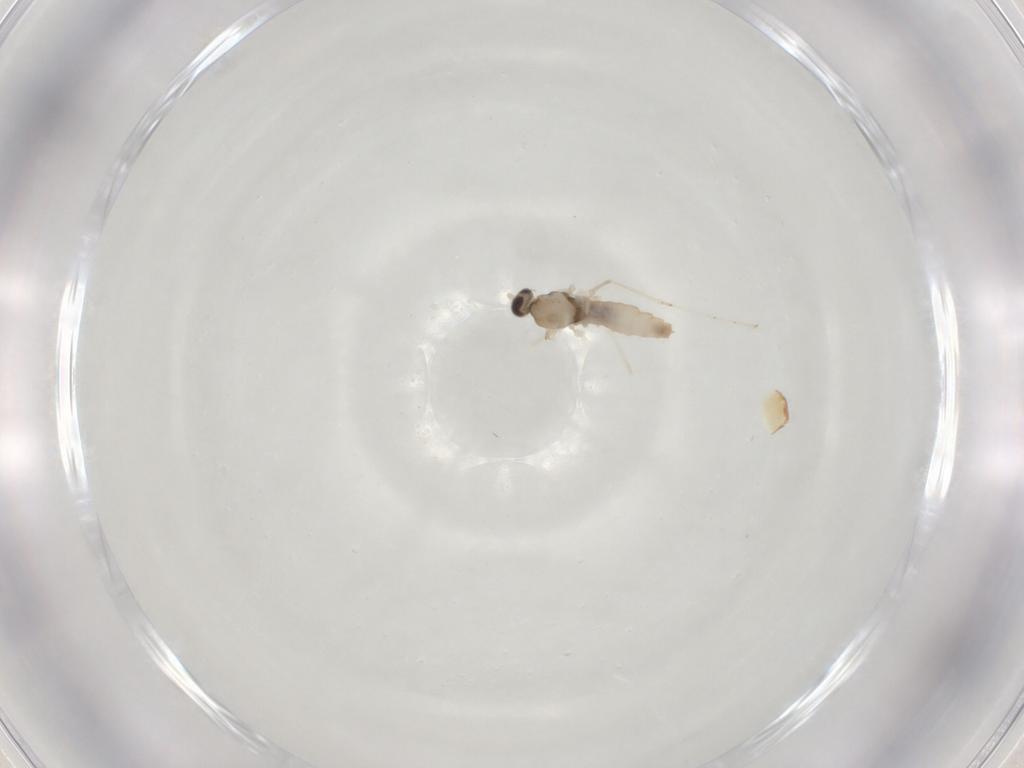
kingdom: Animalia
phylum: Arthropoda
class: Insecta
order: Diptera
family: Cecidomyiidae
